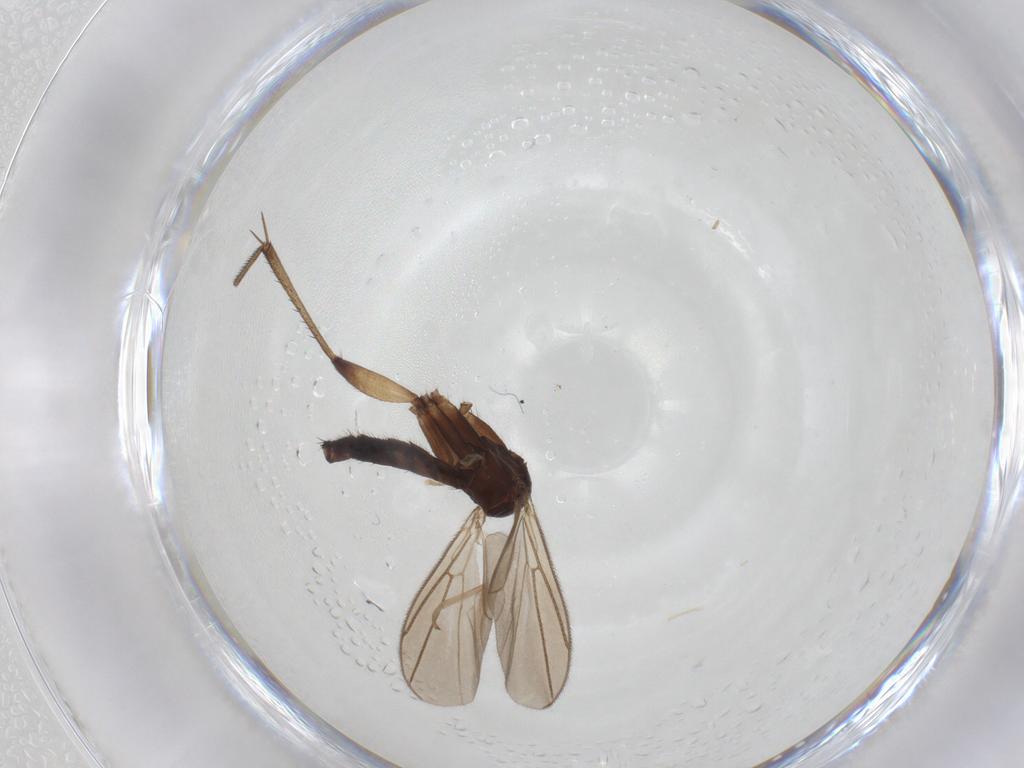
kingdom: Animalia
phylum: Arthropoda
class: Insecta
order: Diptera
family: Mycetophilidae
